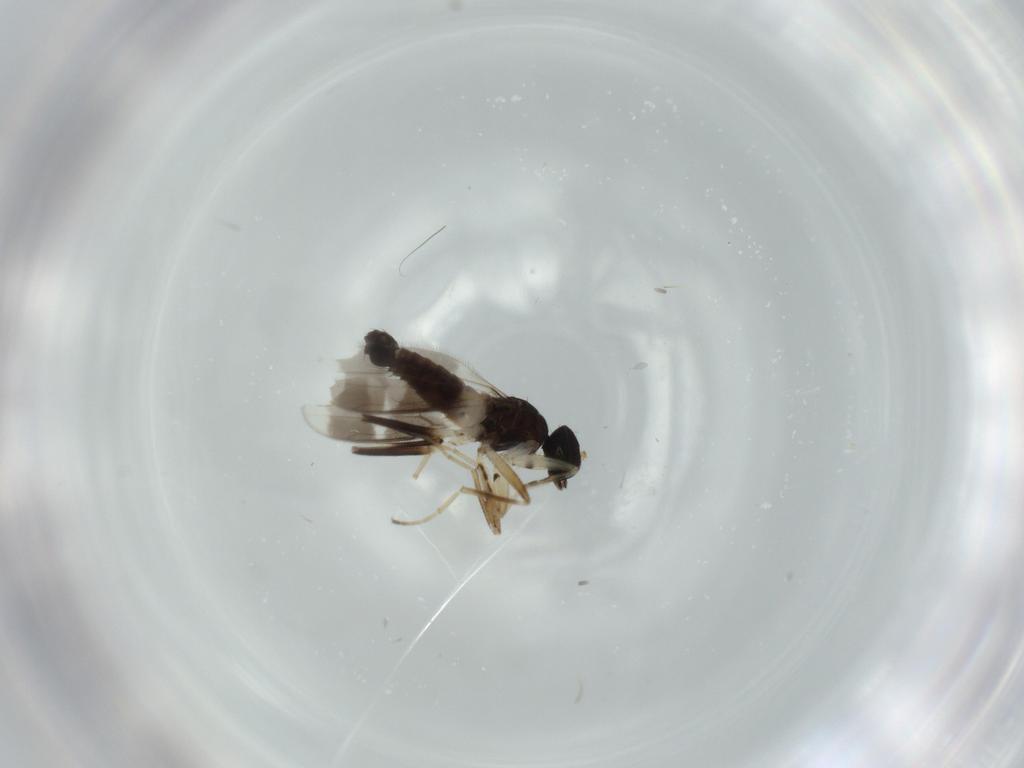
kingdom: Animalia
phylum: Arthropoda
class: Insecta
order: Diptera
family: Hybotidae
